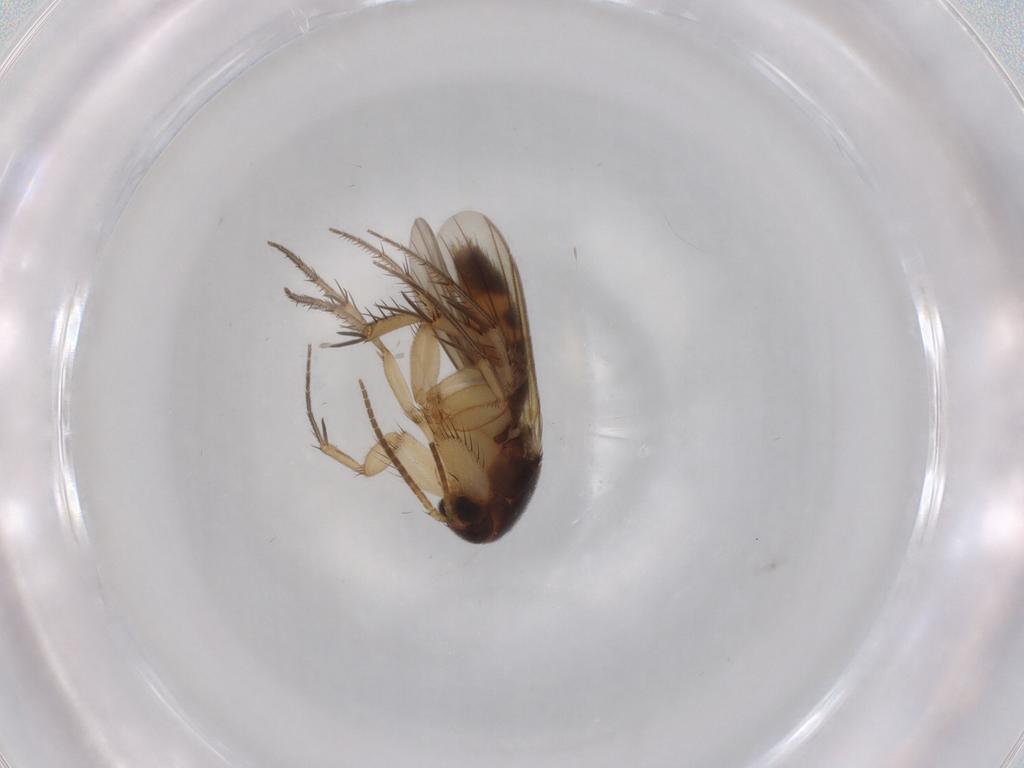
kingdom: Animalia
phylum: Arthropoda
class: Insecta
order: Diptera
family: Mycetophilidae
